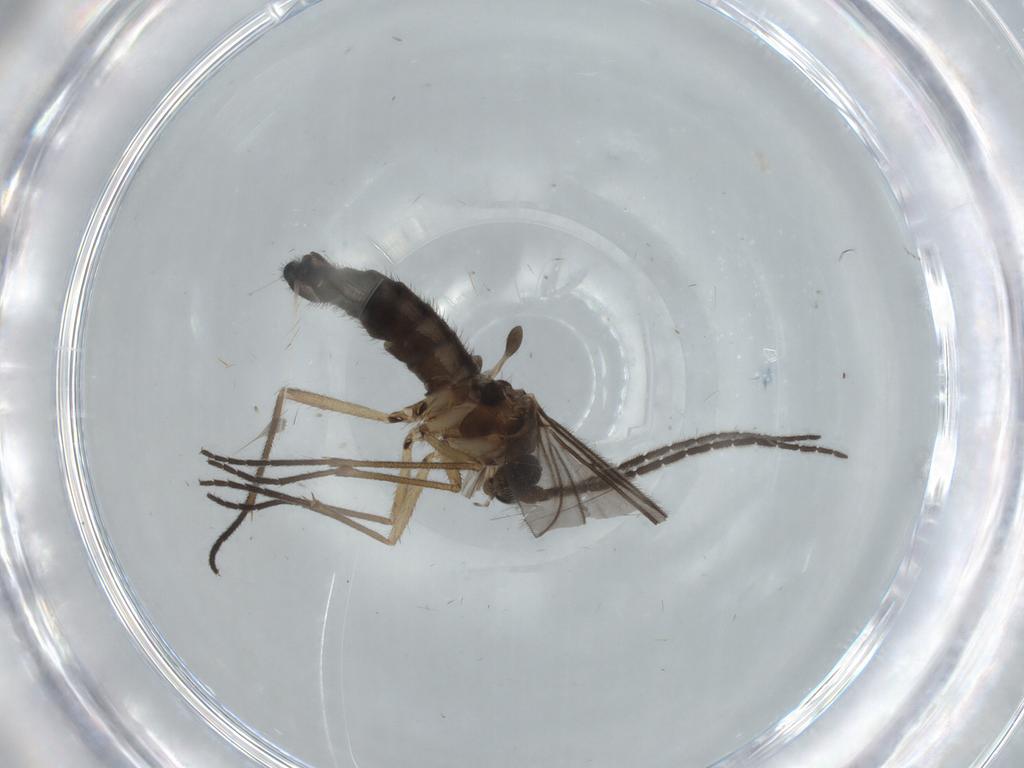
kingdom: Animalia
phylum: Arthropoda
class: Insecta
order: Diptera
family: Sciaridae
